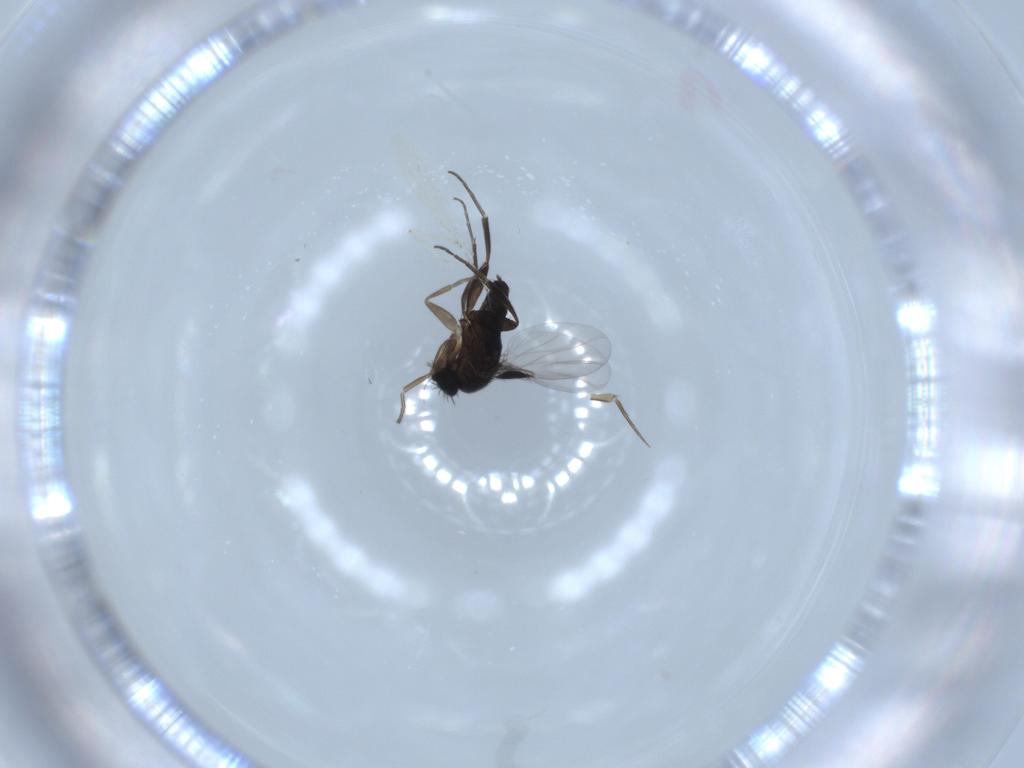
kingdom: Animalia
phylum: Arthropoda
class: Insecta
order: Diptera
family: Phoridae
